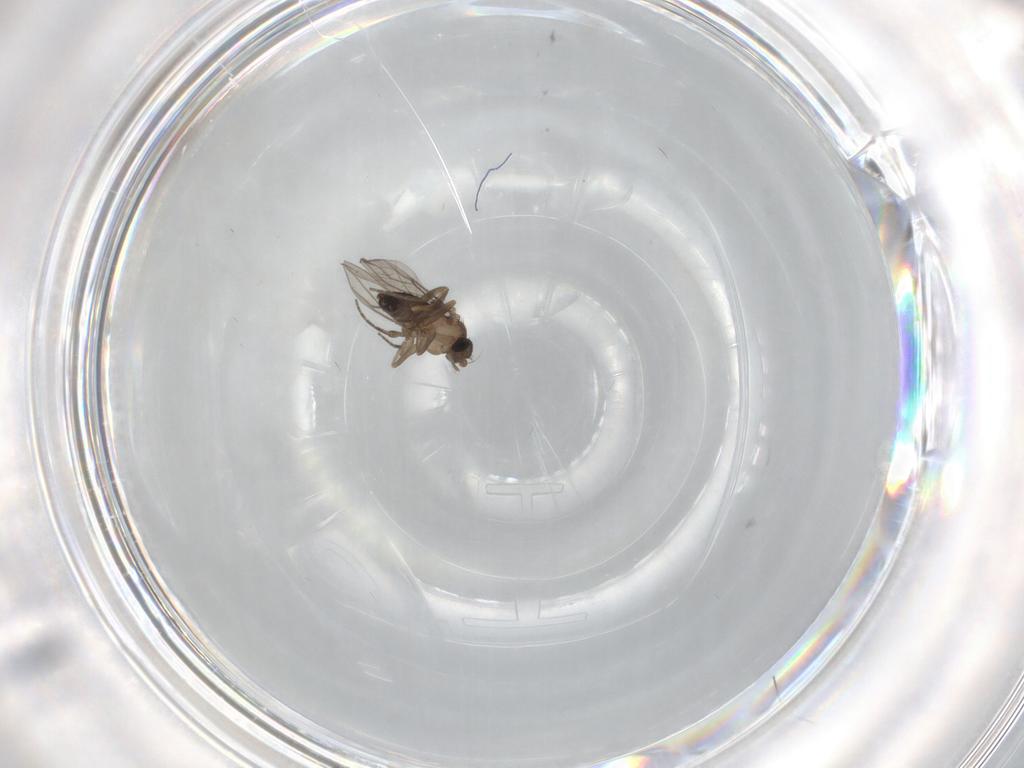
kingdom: Animalia
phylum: Arthropoda
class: Insecta
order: Diptera
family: Phoridae
